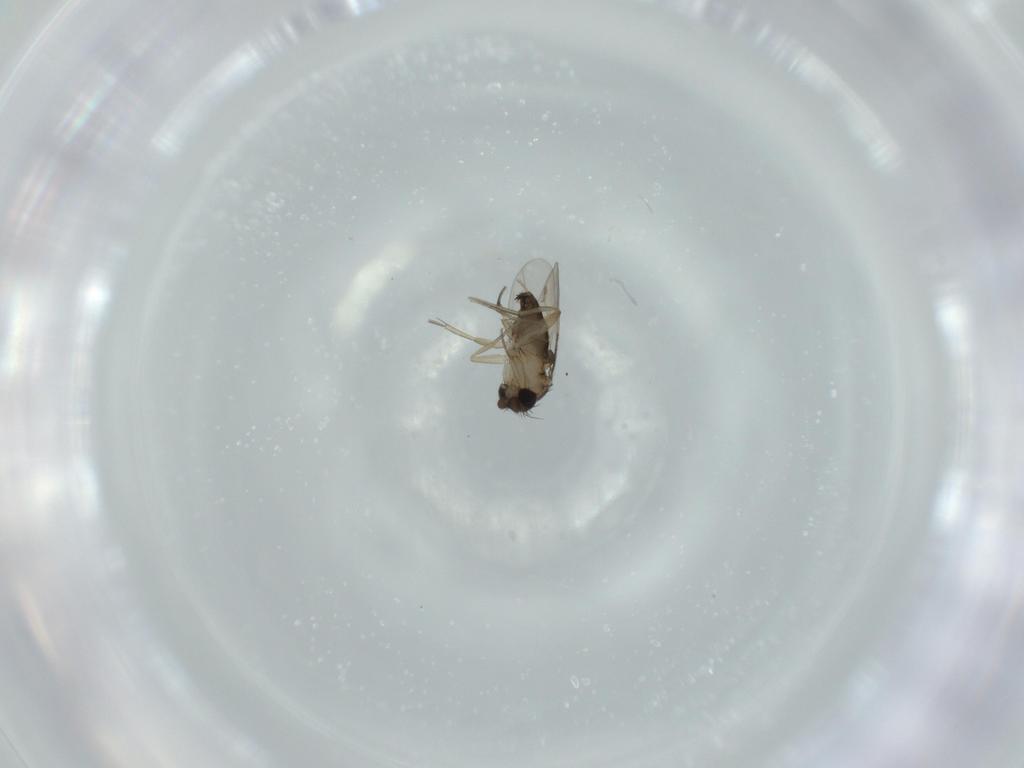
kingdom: Animalia
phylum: Arthropoda
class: Insecta
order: Diptera
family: Phoridae
